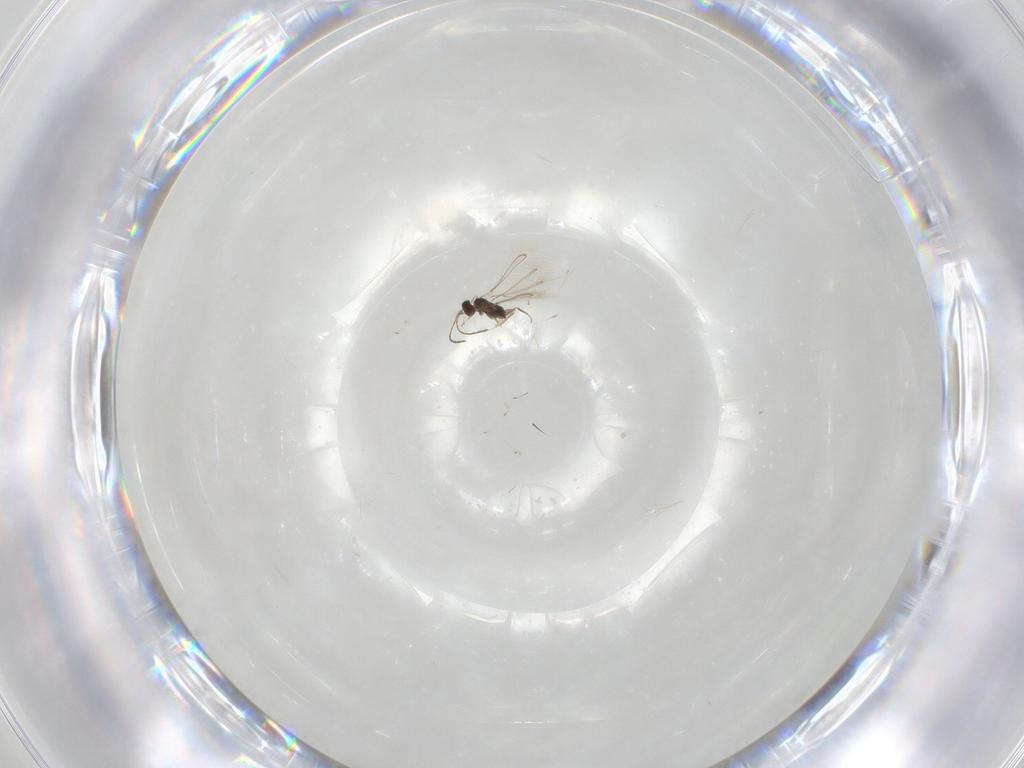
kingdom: Animalia
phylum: Arthropoda
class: Insecta
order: Hymenoptera
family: Formicidae
